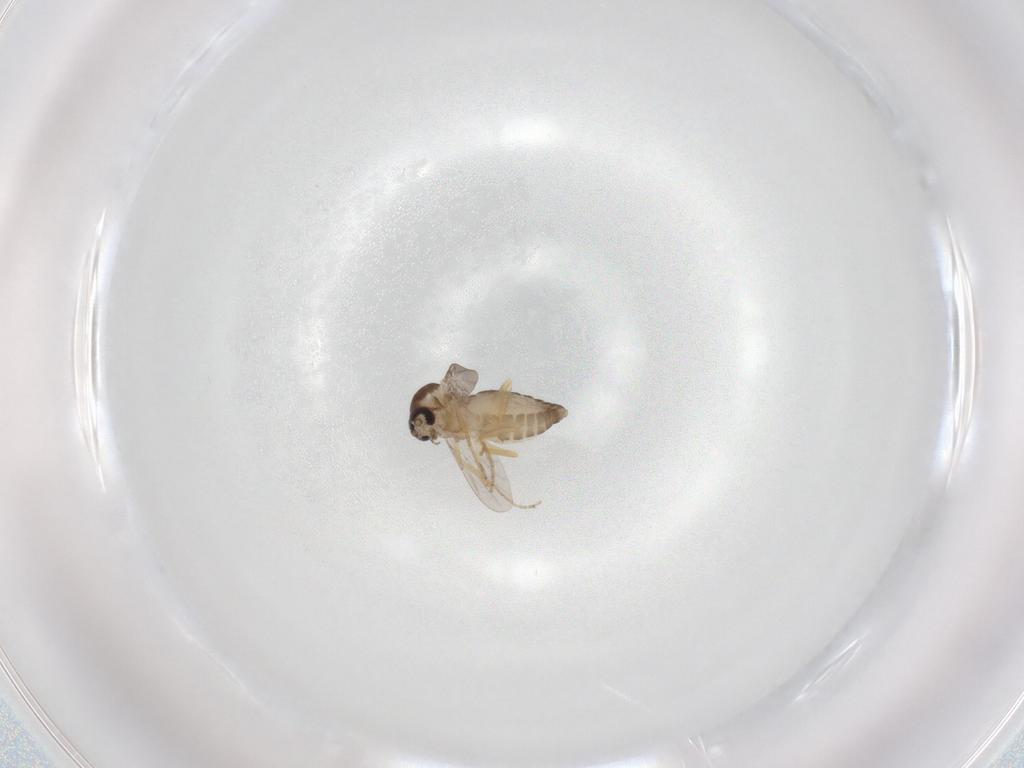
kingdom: Animalia
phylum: Arthropoda
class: Insecta
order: Diptera
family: Ceratopogonidae
